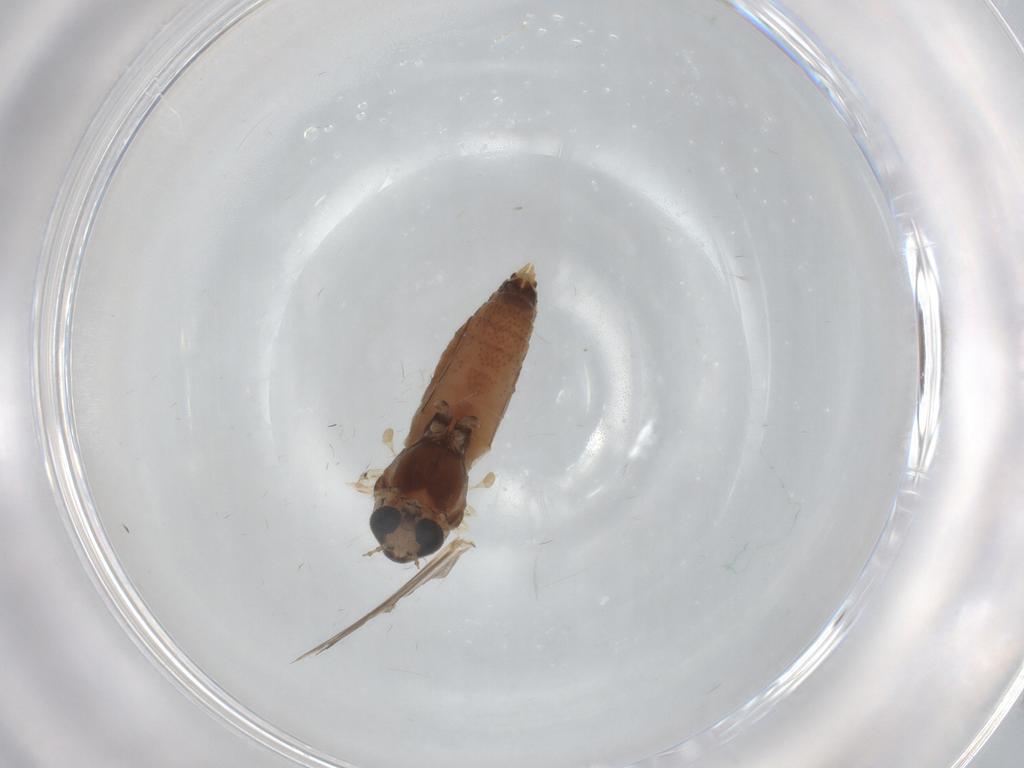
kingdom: Animalia
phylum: Arthropoda
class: Insecta
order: Diptera
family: Chironomidae
